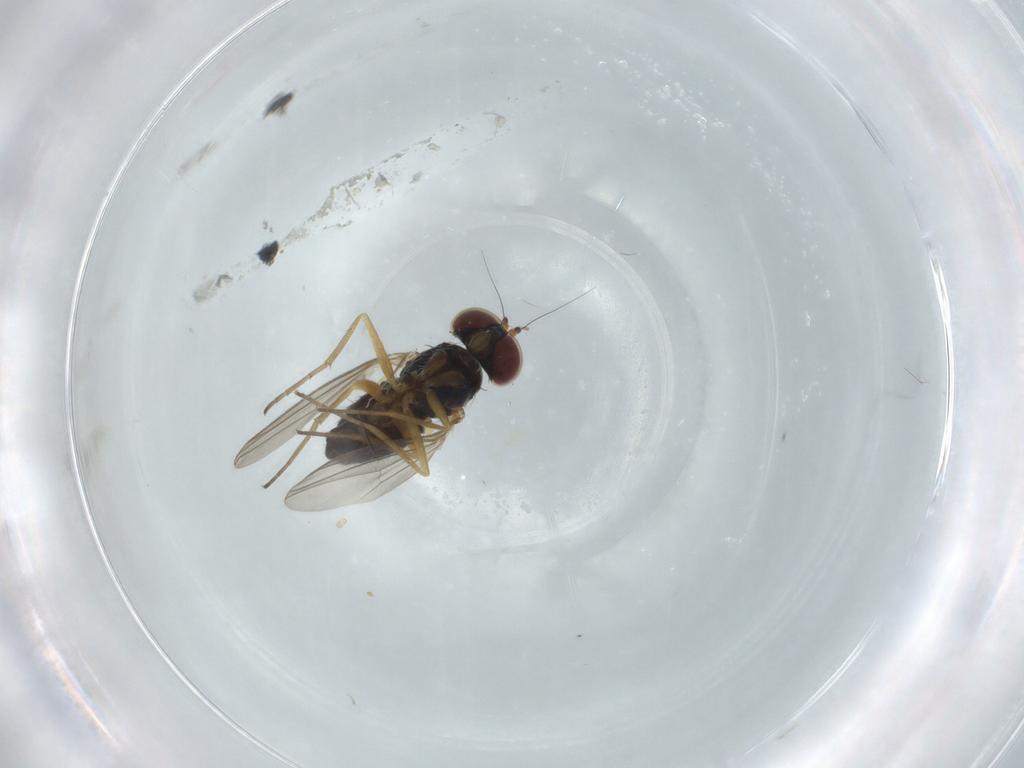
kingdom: Animalia
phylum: Arthropoda
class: Insecta
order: Diptera
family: Chironomidae
